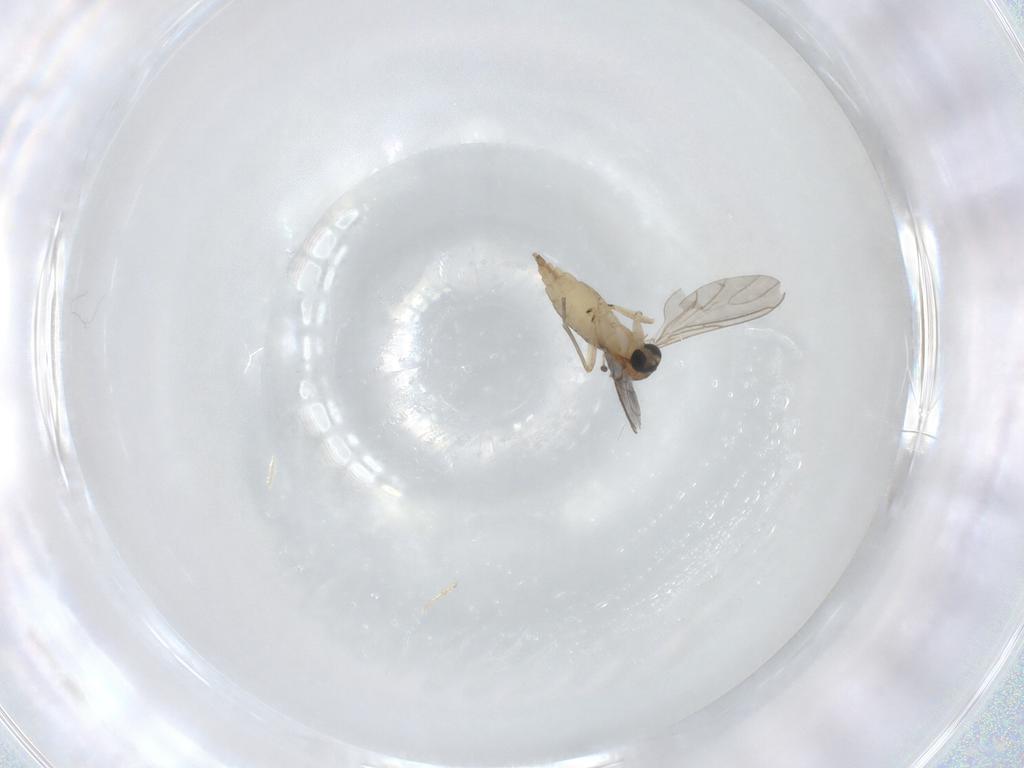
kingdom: Animalia
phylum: Arthropoda
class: Insecta
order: Diptera
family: Sciaridae
